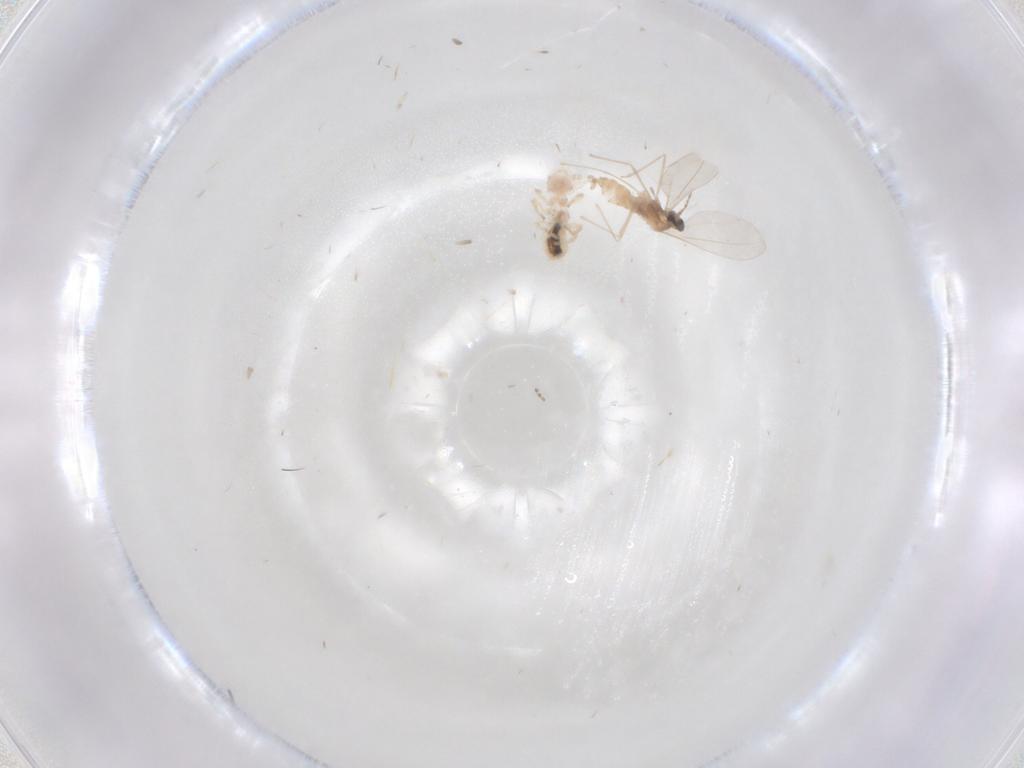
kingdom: Animalia
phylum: Arthropoda
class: Insecta
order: Diptera
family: Cecidomyiidae
